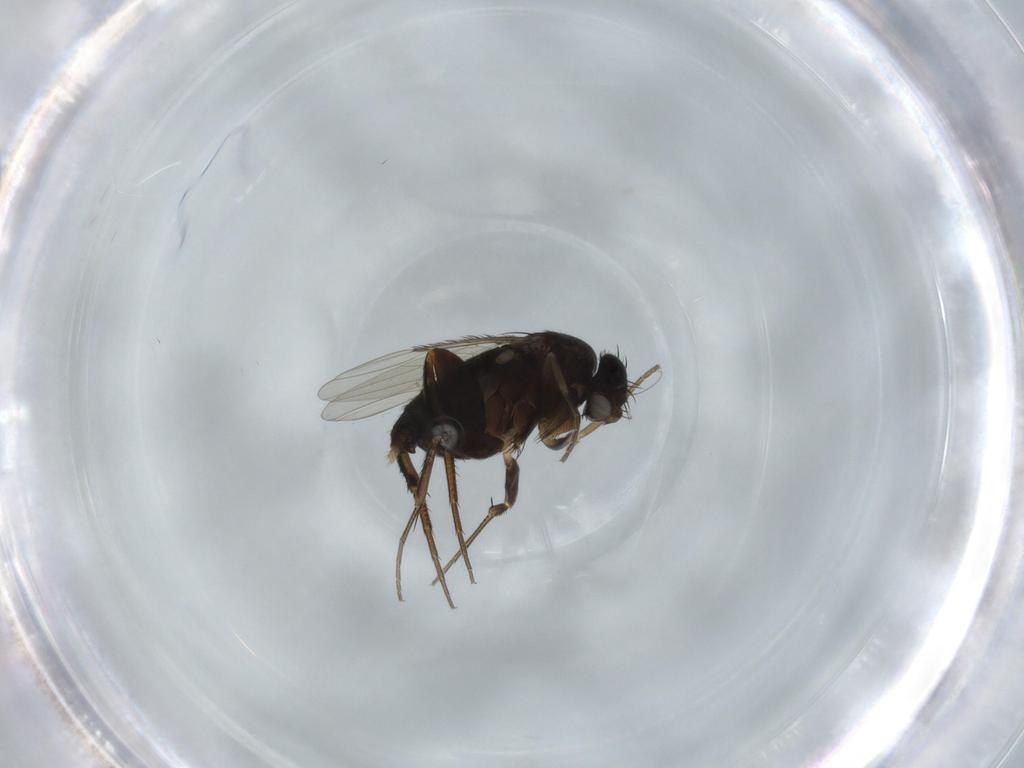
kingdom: Animalia
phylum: Arthropoda
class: Insecta
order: Diptera
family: Phoridae
